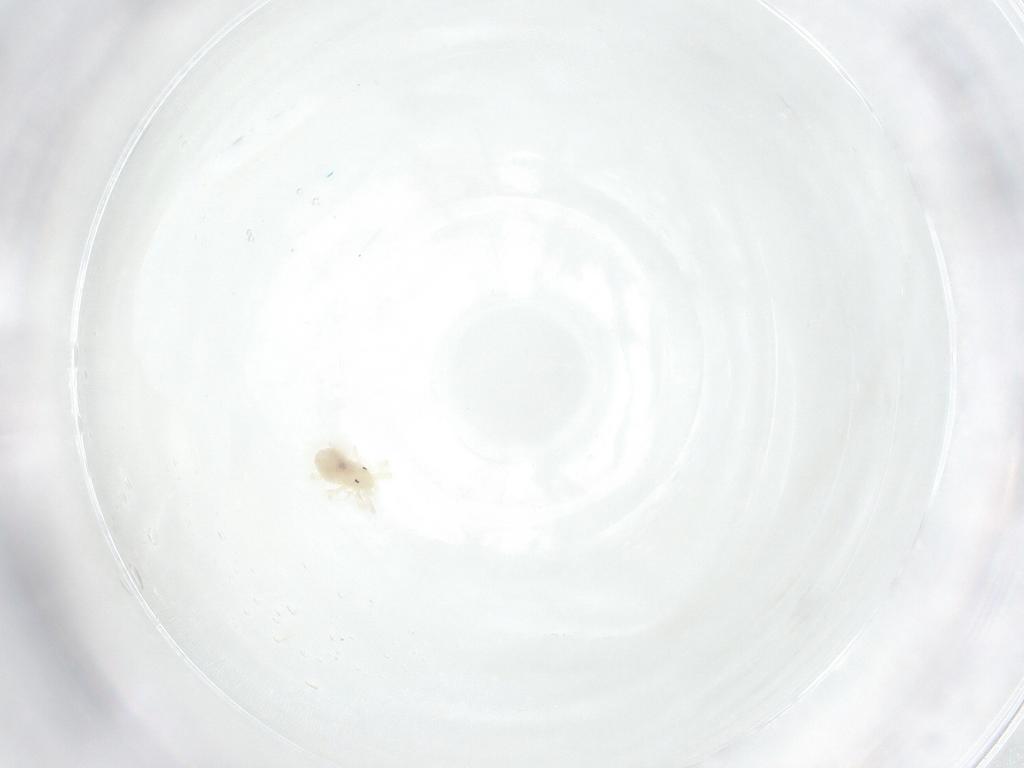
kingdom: Animalia
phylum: Arthropoda
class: Arachnida
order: Trombidiformes
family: Anystidae
